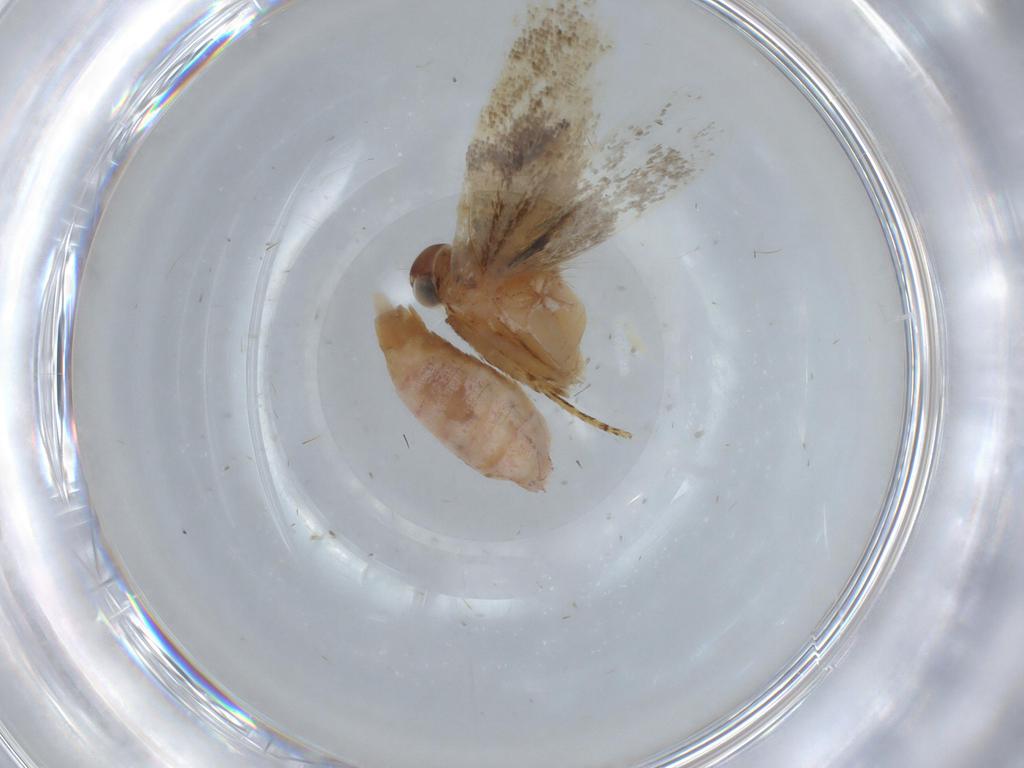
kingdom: Animalia
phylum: Arthropoda
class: Insecta
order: Lepidoptera
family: Gelechiidae
